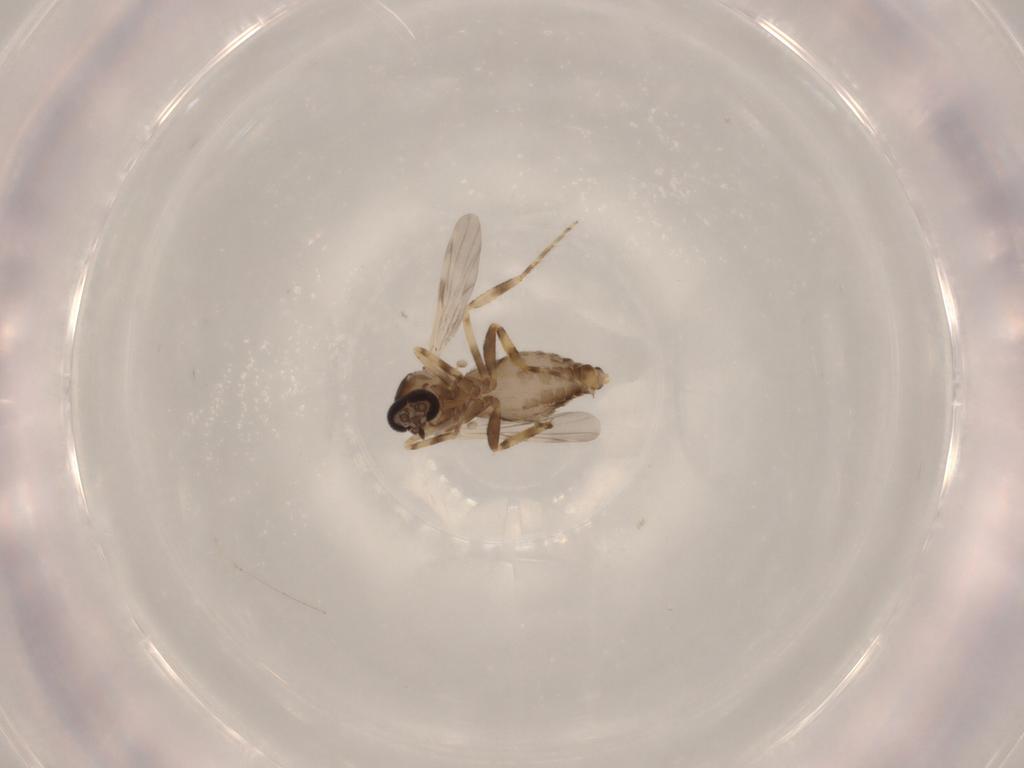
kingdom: Animalia
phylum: Arthropoda
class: Insecta
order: Diptera
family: Ceratopogonidae
